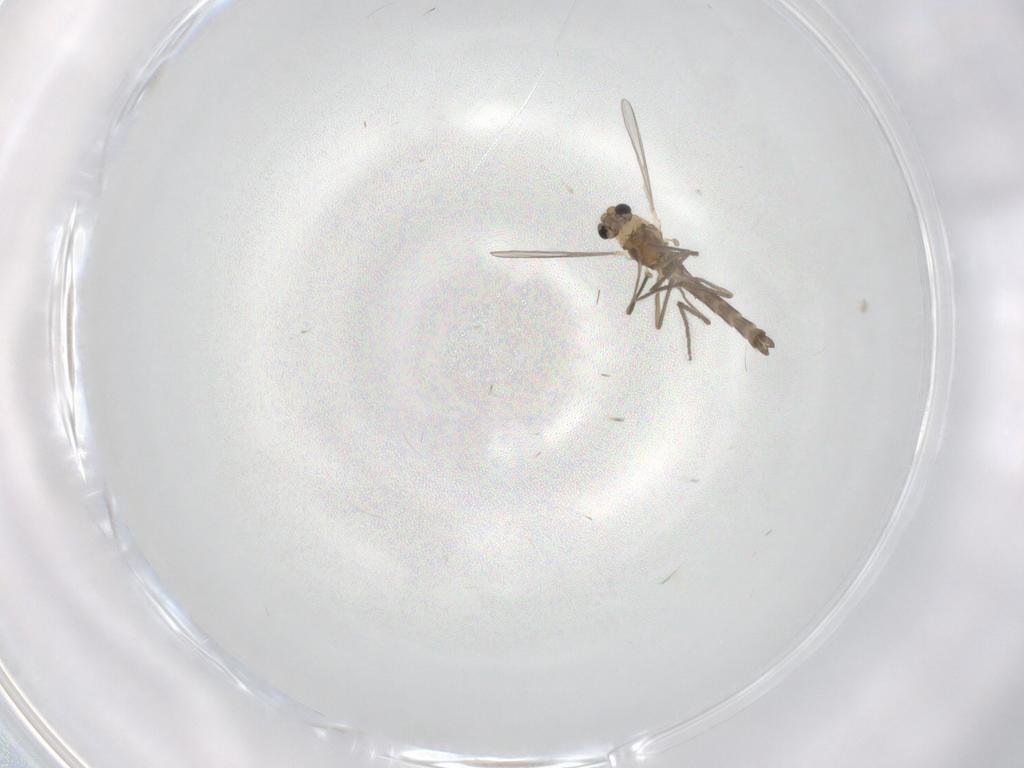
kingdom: Animalia
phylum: Arthropoda
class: Insecta
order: Diptera
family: Chironomidae
